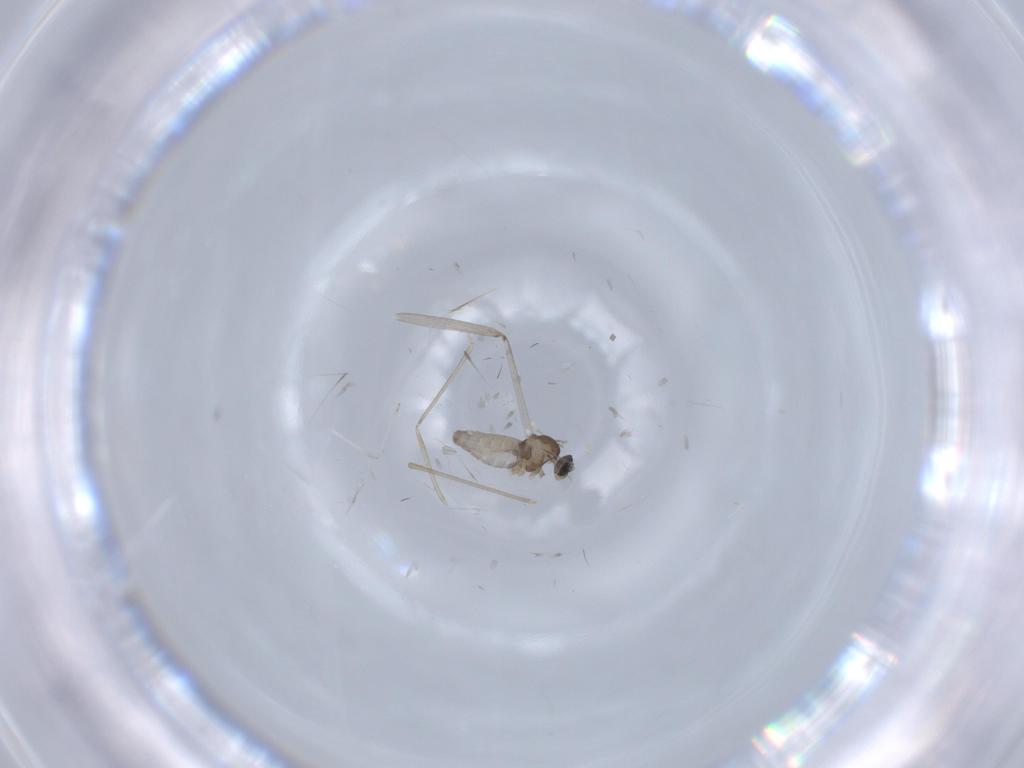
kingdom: Animalia
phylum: Arthropoda
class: Insecta
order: Diptera
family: Cecidomyiidae
